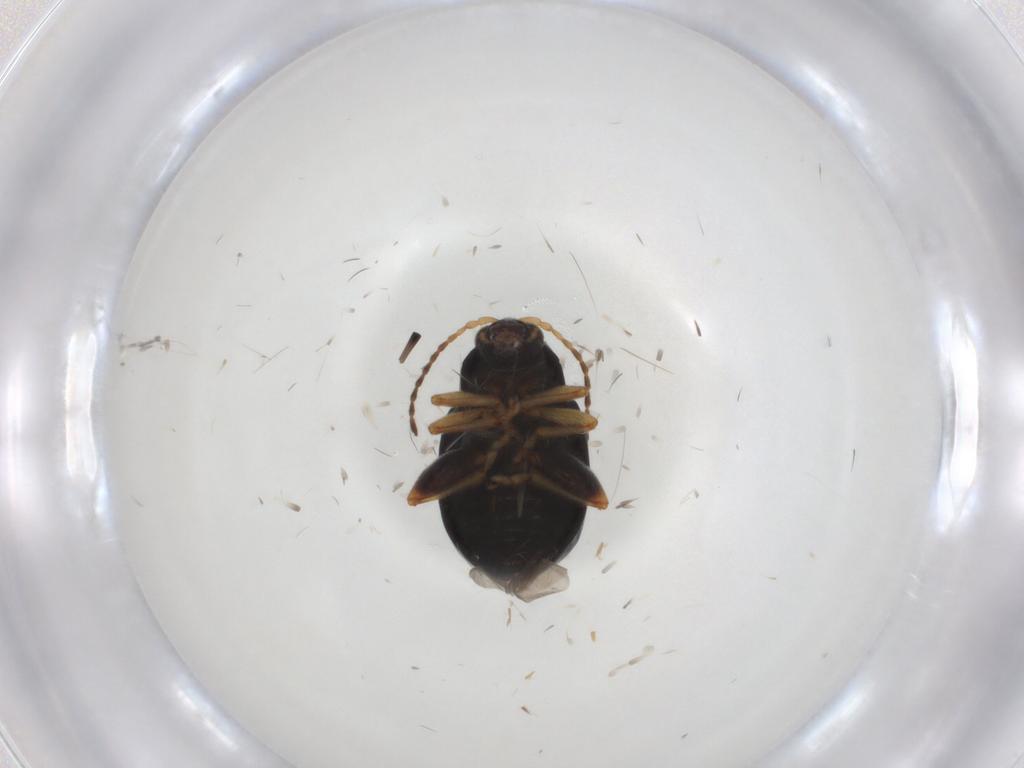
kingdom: Animalia
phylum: Arthropoda
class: Insecta
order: Coleoptera
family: Chrysomelidae
